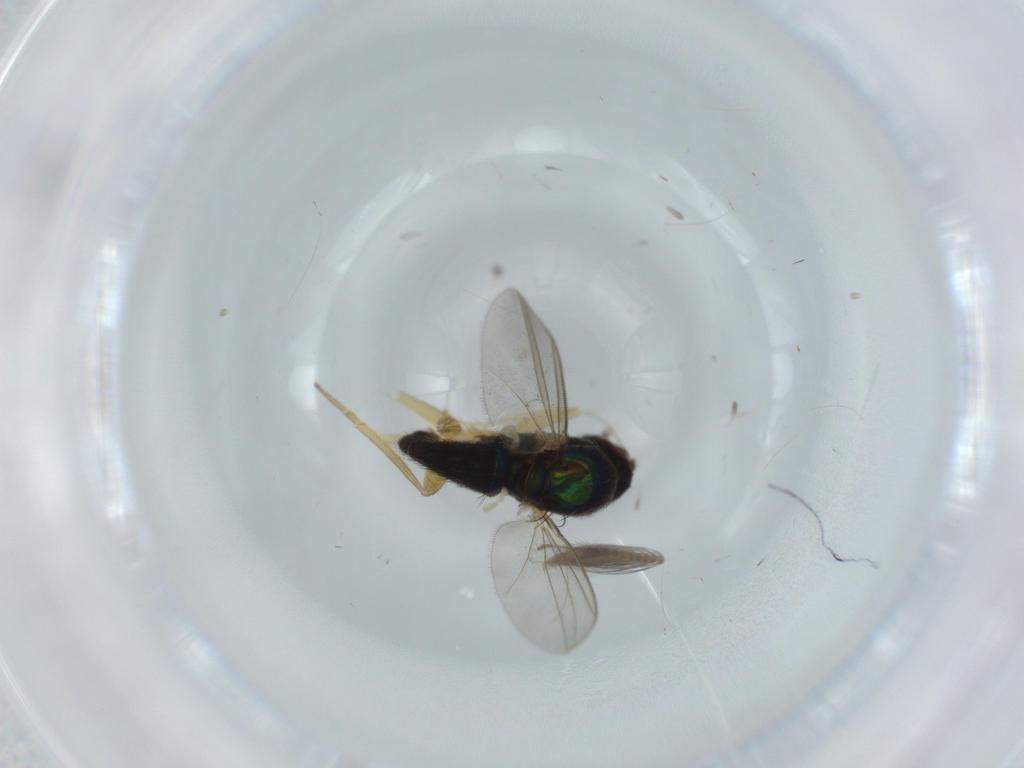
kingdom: Animalia
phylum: Arthropoda
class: Insecta
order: Diptera
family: Dolichopodidae
